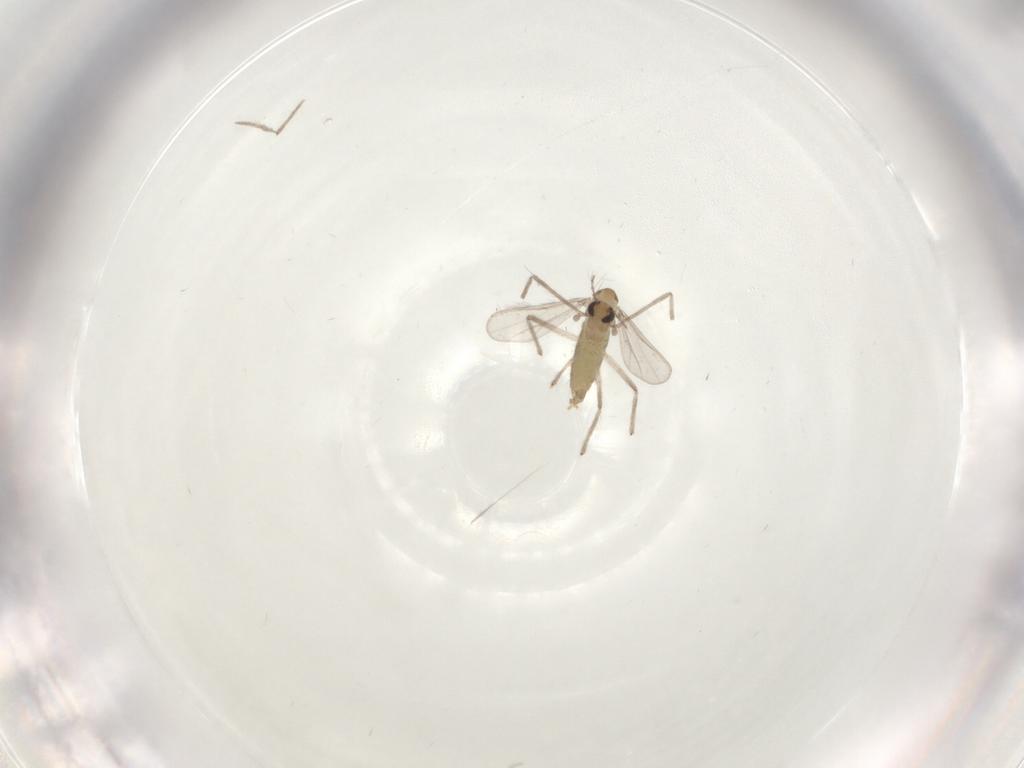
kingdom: Animalia
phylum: Arthropoda
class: Insecta
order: Diptera
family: Chironomidae
